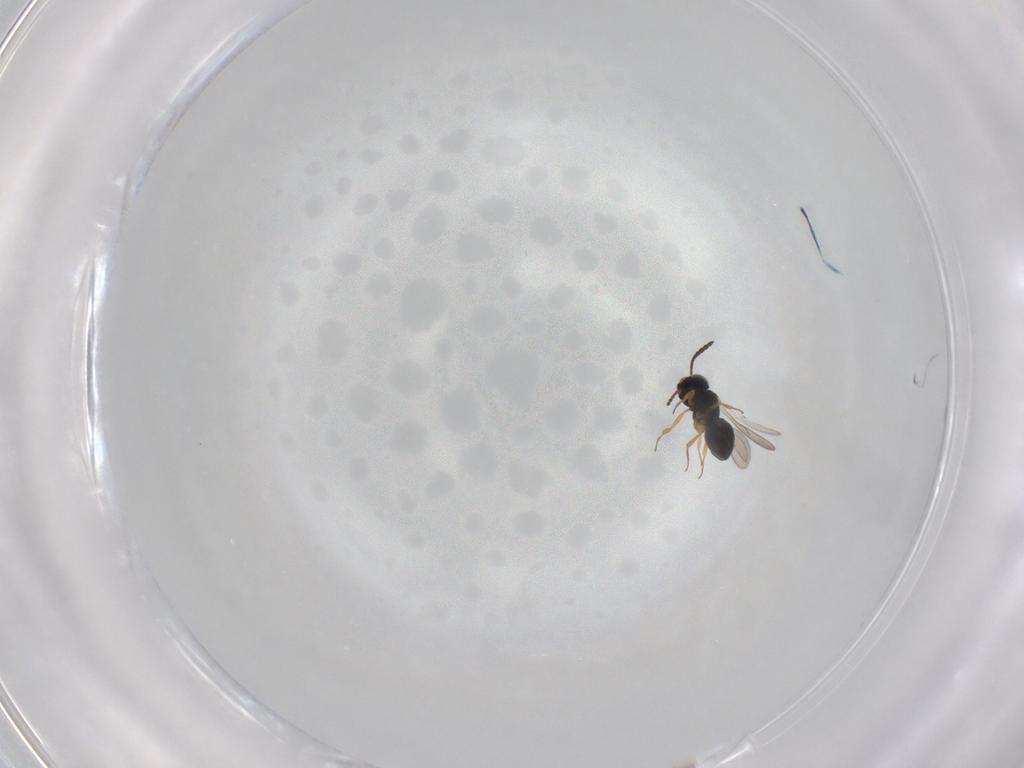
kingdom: Animalia
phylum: Arthropoda
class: Insecta
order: Hymenoptera
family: Scelionidae
